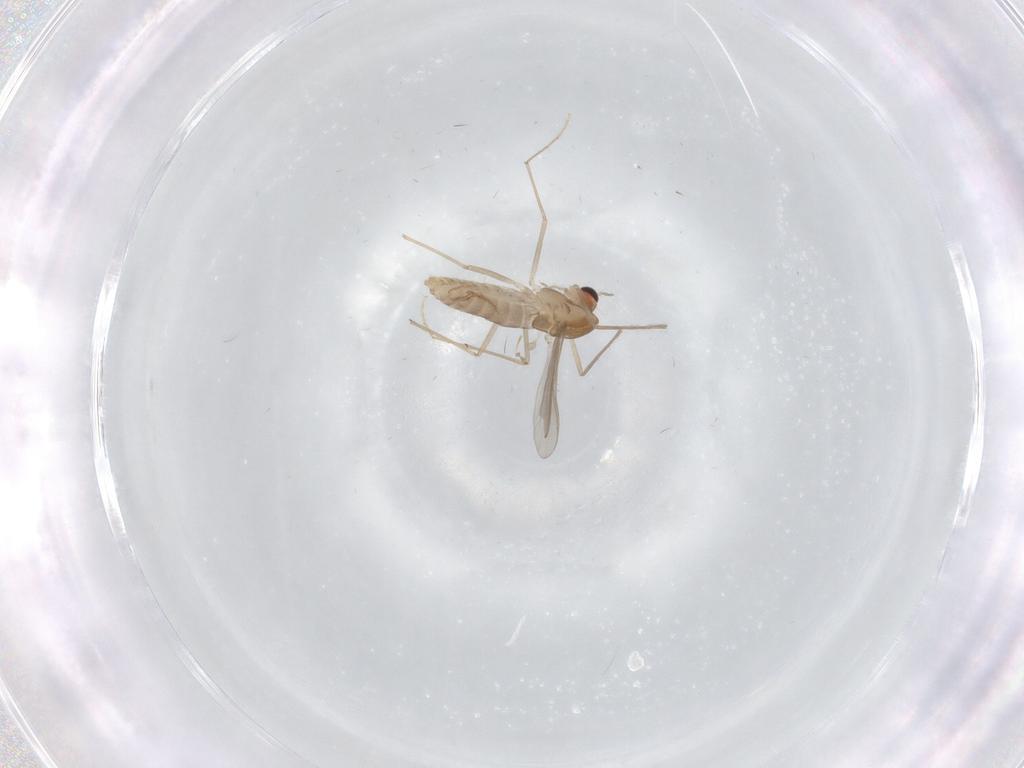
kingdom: Animalia
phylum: Arthropoda
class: Insecta
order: Diptera
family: Chironomidae
